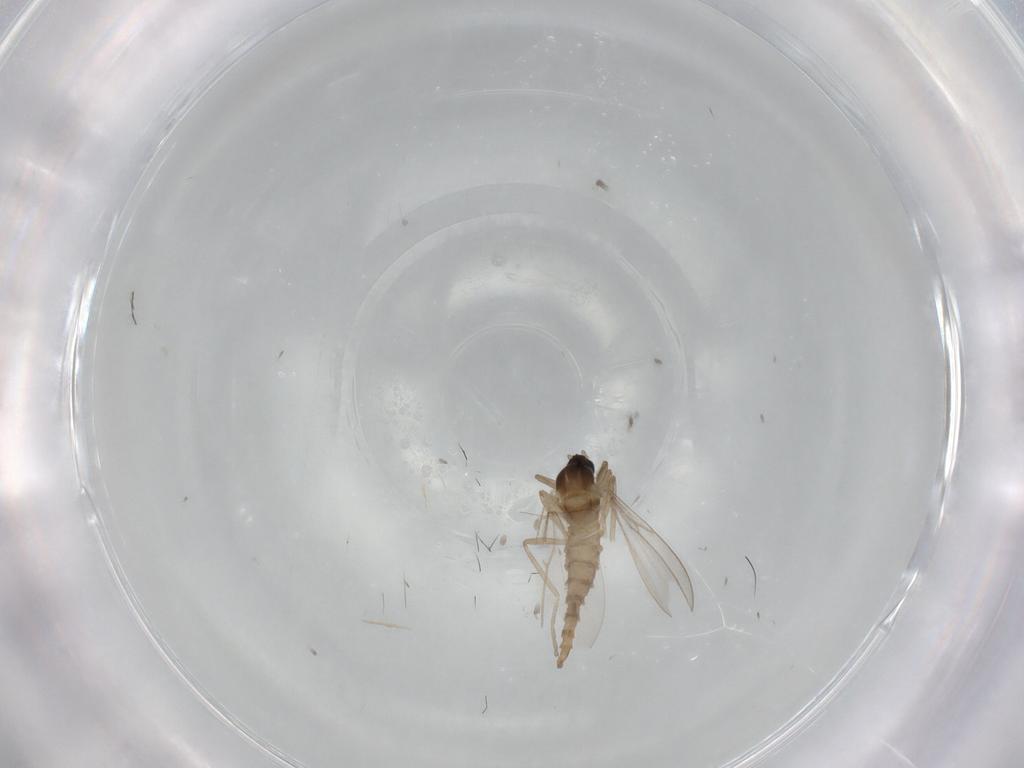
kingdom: Animalia
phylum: Arthropoda
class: Insecta
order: Diptera
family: Cecidomyiidae
